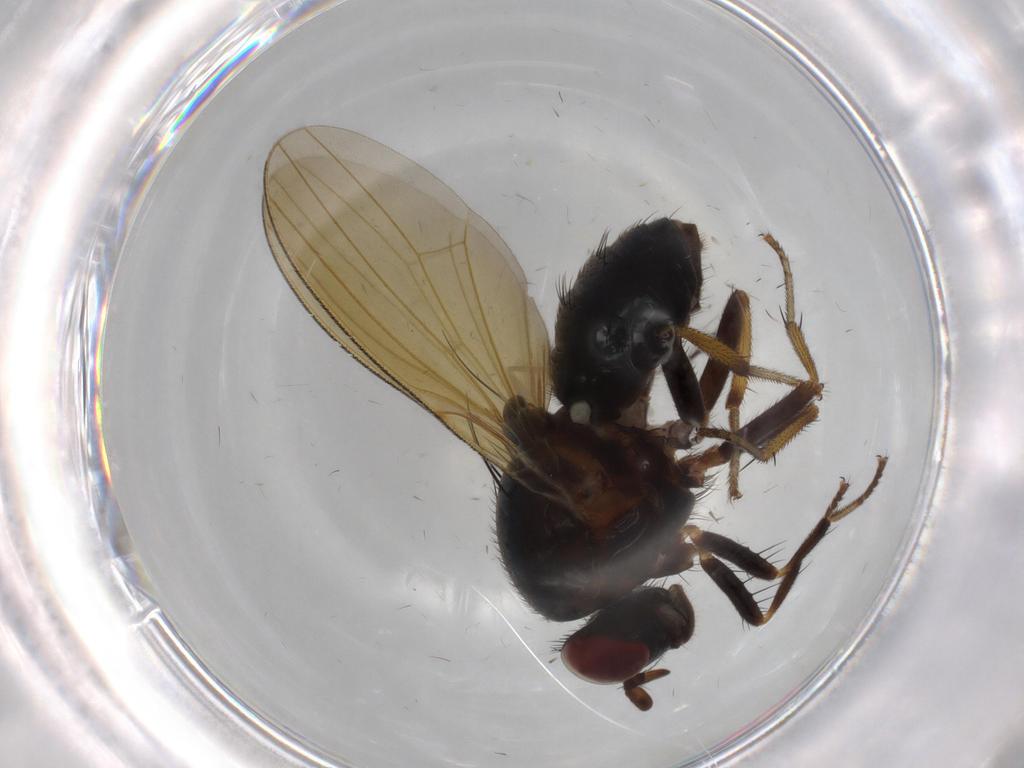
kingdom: Animalia
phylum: Arthropoda
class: Insecta
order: Diptera
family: Lauxaniidae
